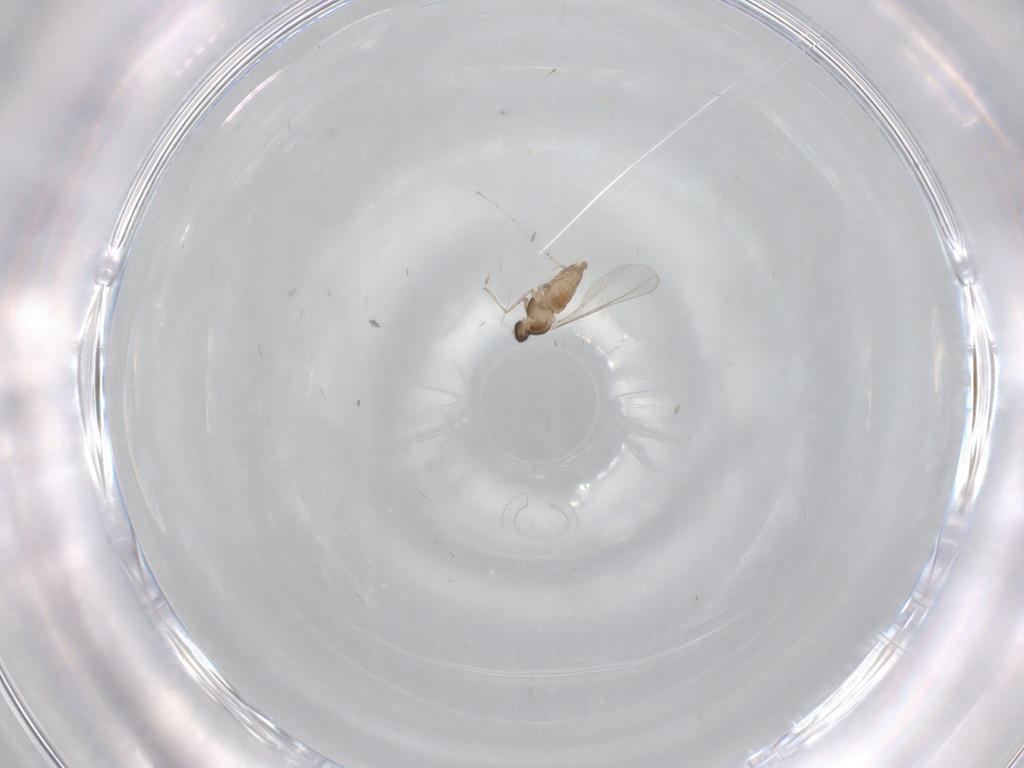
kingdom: Animalia
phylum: Arthropoda
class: Insecta
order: Diptera
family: Cecidomyiidae
